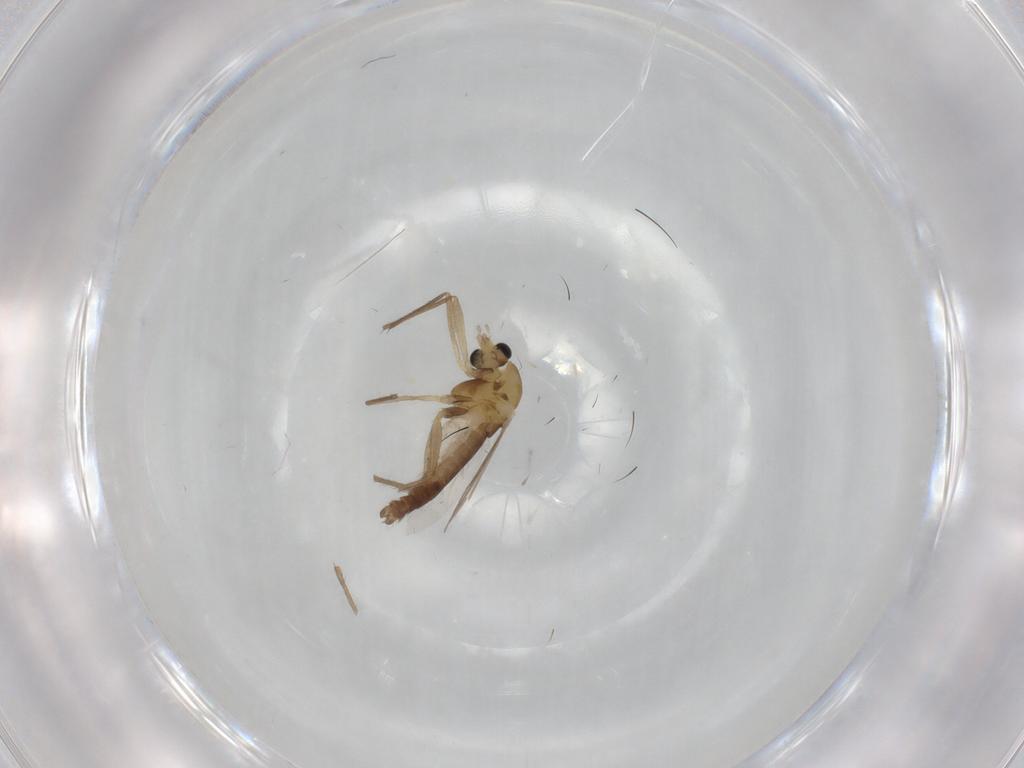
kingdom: Animalia
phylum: Arthropoda
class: Insecta
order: Diptera
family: Chironomidae
